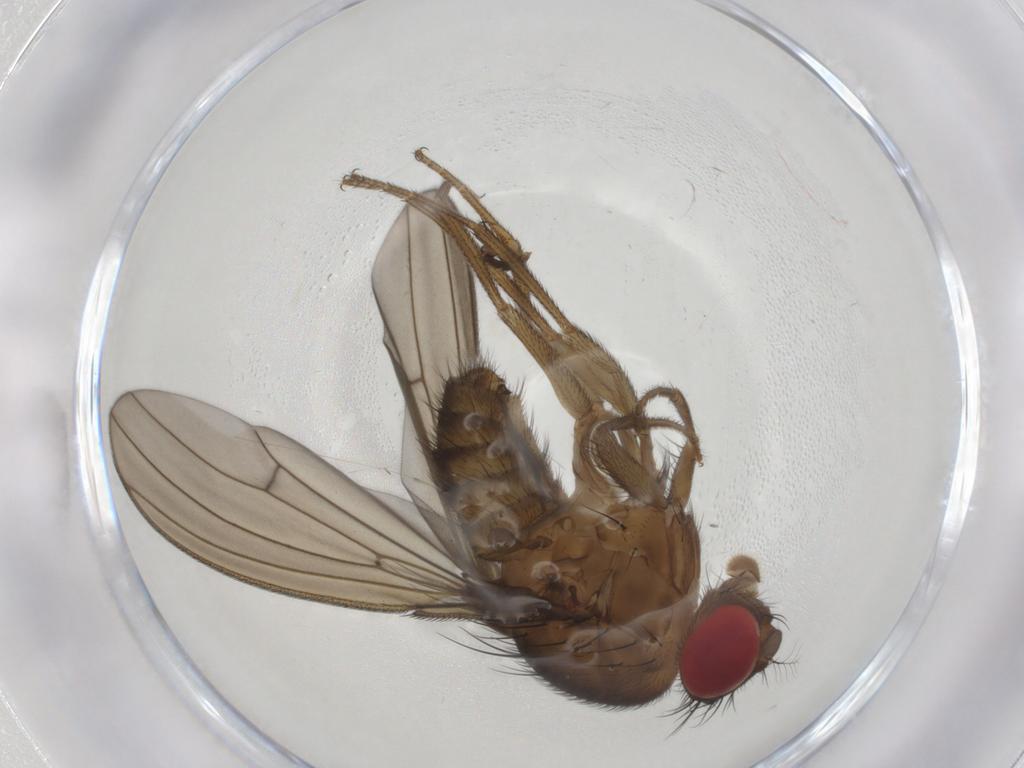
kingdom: Animalia
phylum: Arthropoda
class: Insecta
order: Diptera
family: Drosophilidae
